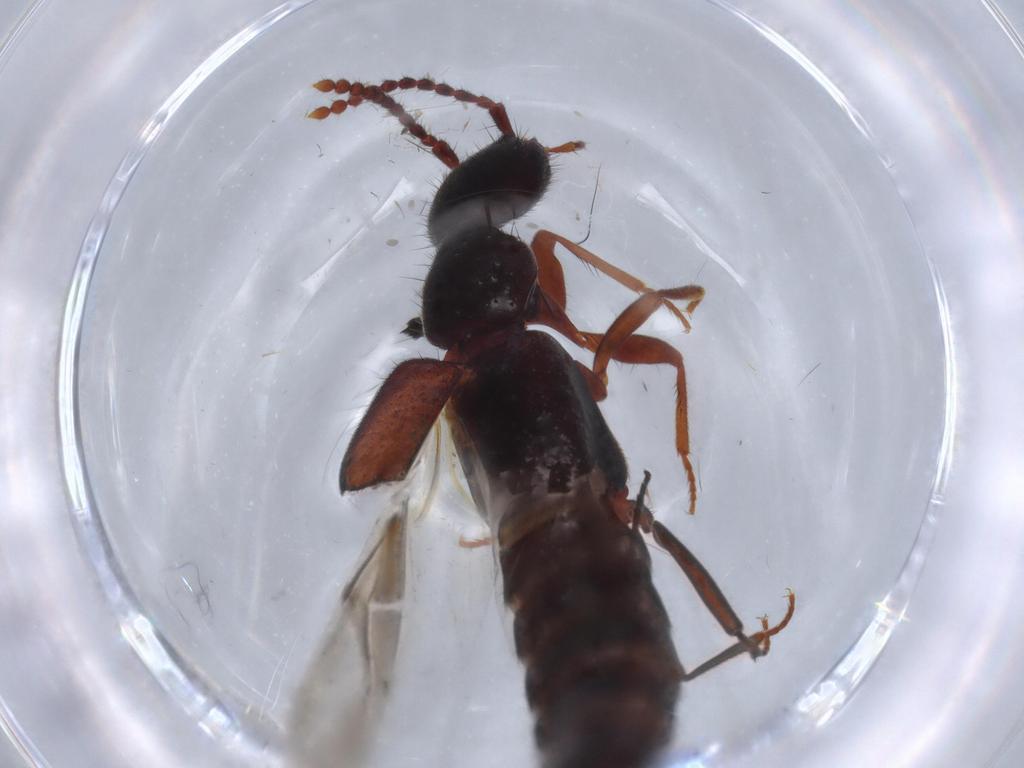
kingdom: Animalia
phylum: Arthropoda
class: Insecta
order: Coleoptera
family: Staphylinidae
